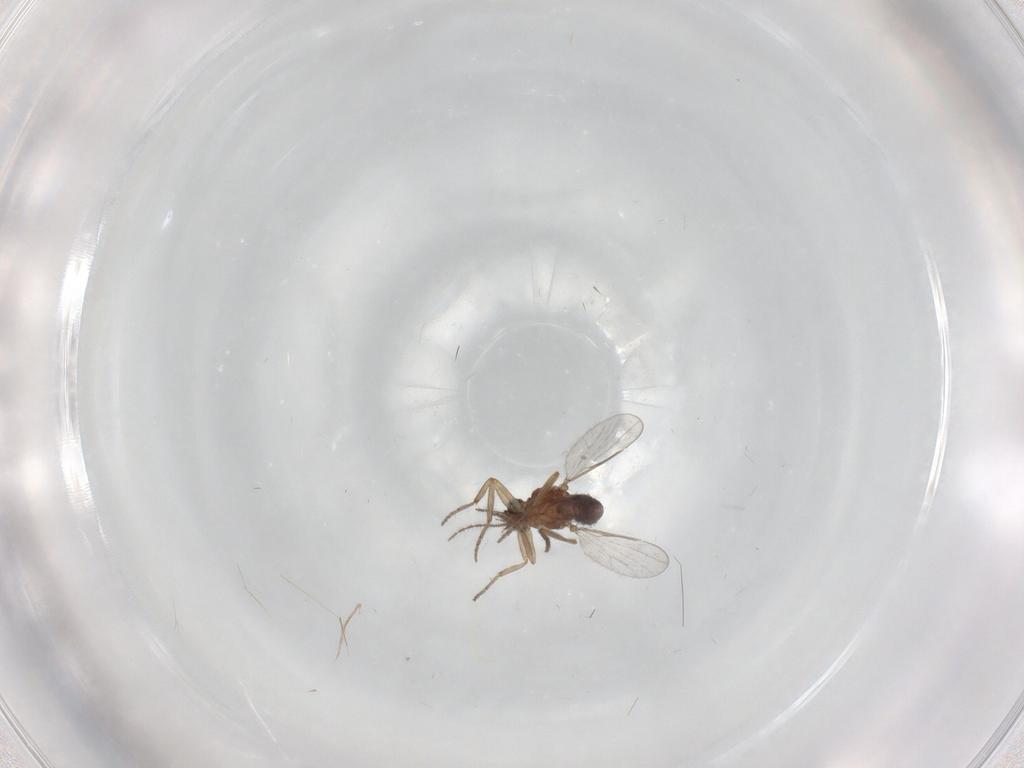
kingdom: Animalia
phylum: Arthropoda
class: Insecta
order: Diptera
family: Ceratopogonidae
